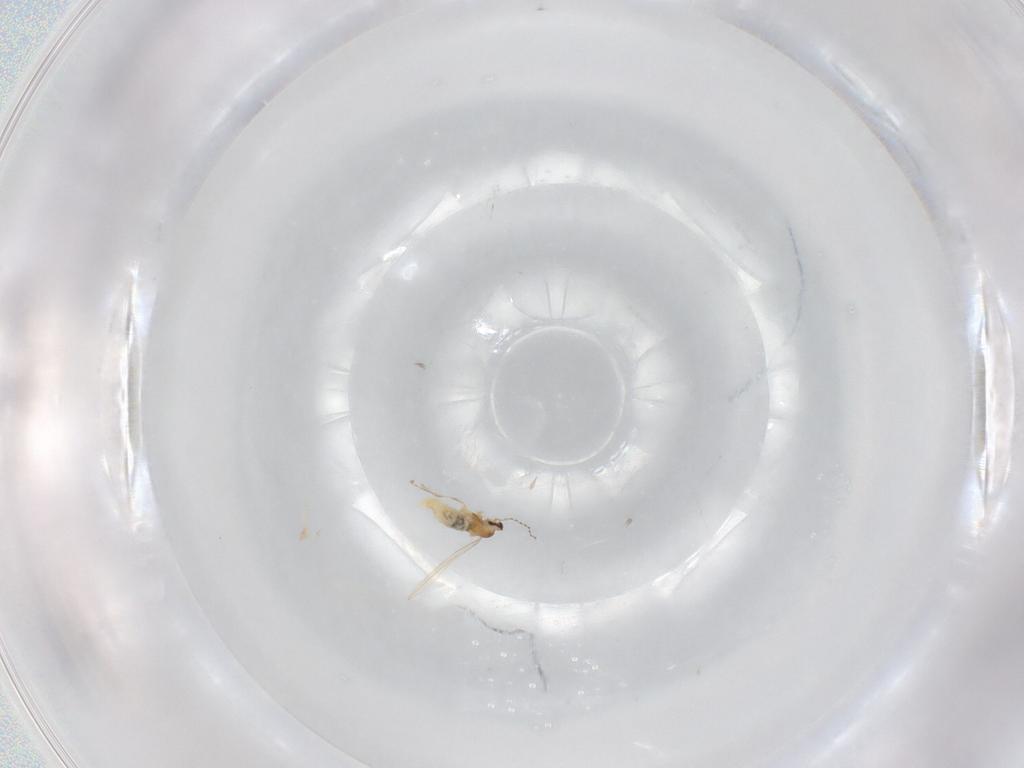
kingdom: Animalia
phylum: Arthropoda
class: Insecta
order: Diptera
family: Cecidomyiidae
